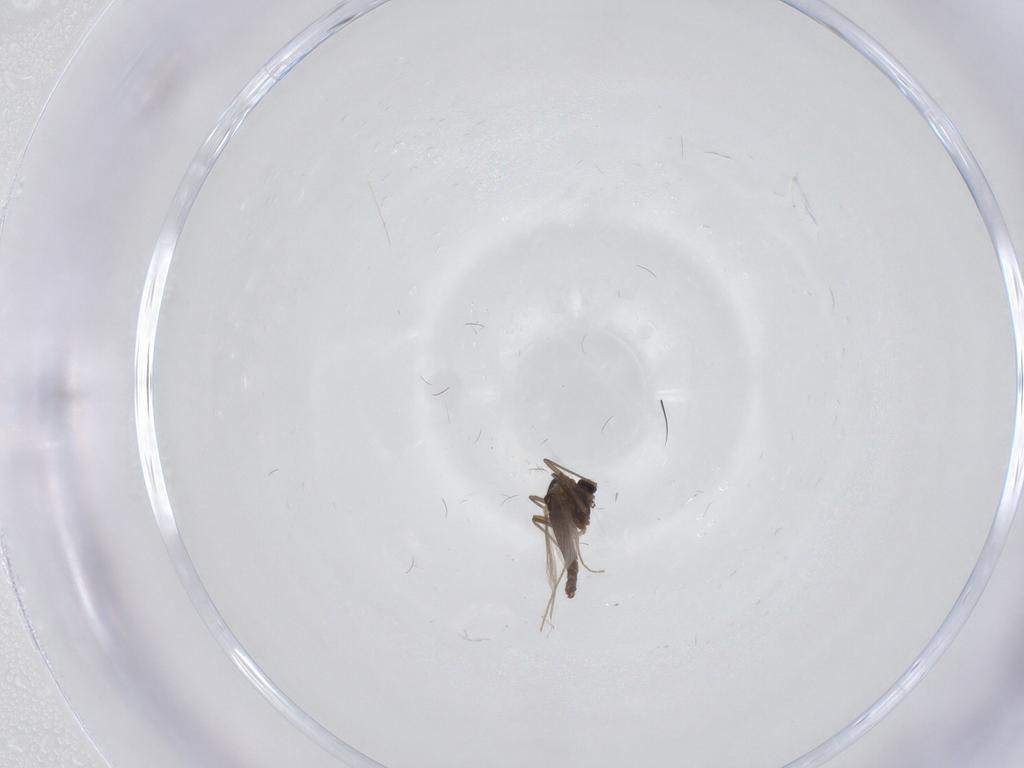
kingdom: Animalia
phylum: Arthropoda
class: Insecta
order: Diptera
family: Chironomidae
